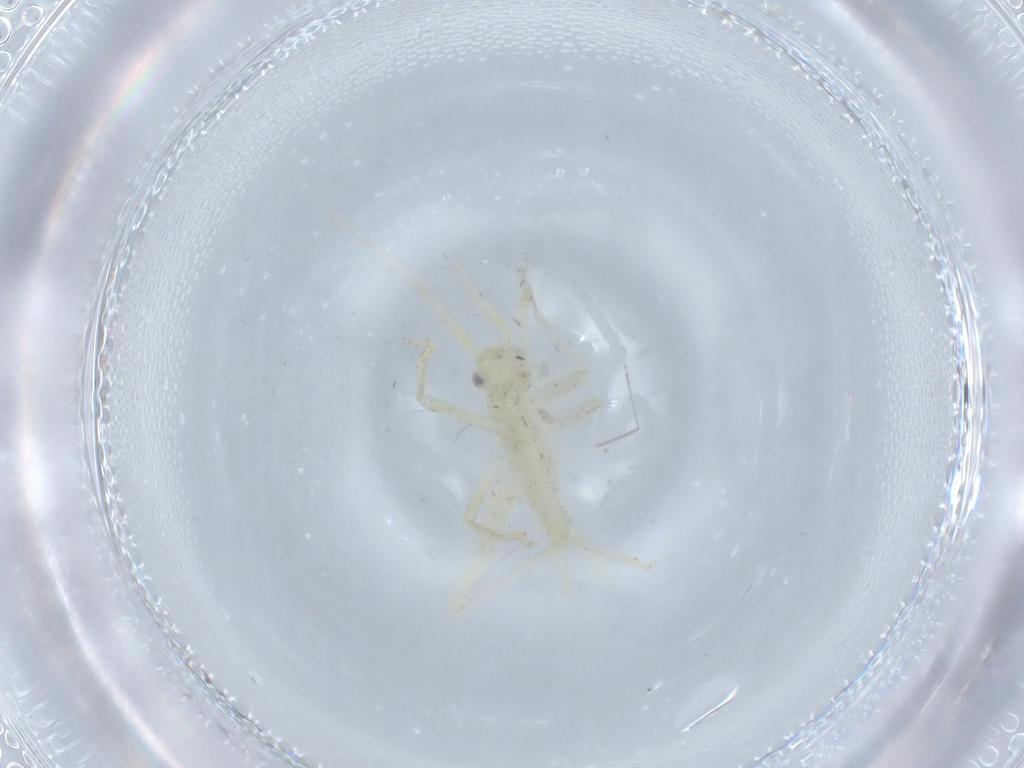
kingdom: Animalia
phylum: Arthropoda
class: Insecta
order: Orthoptera
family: Trigonidiidae
